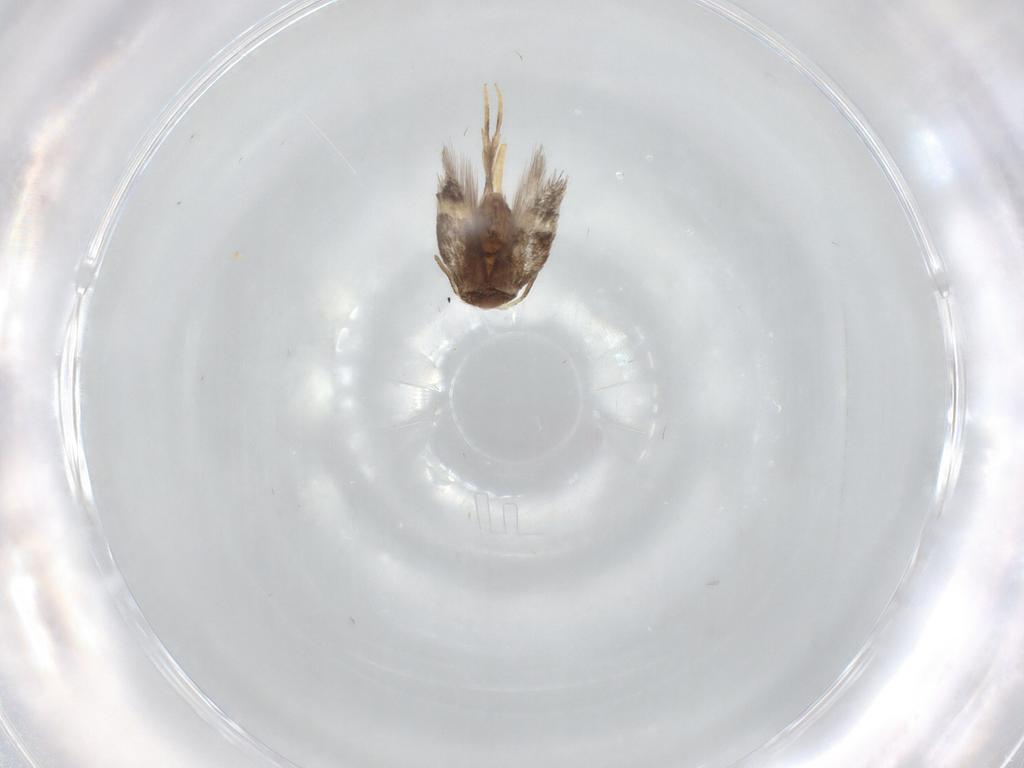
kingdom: Animalia
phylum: Arthropoda
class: Insecta
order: Lepidoptera
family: Nepticulidae
